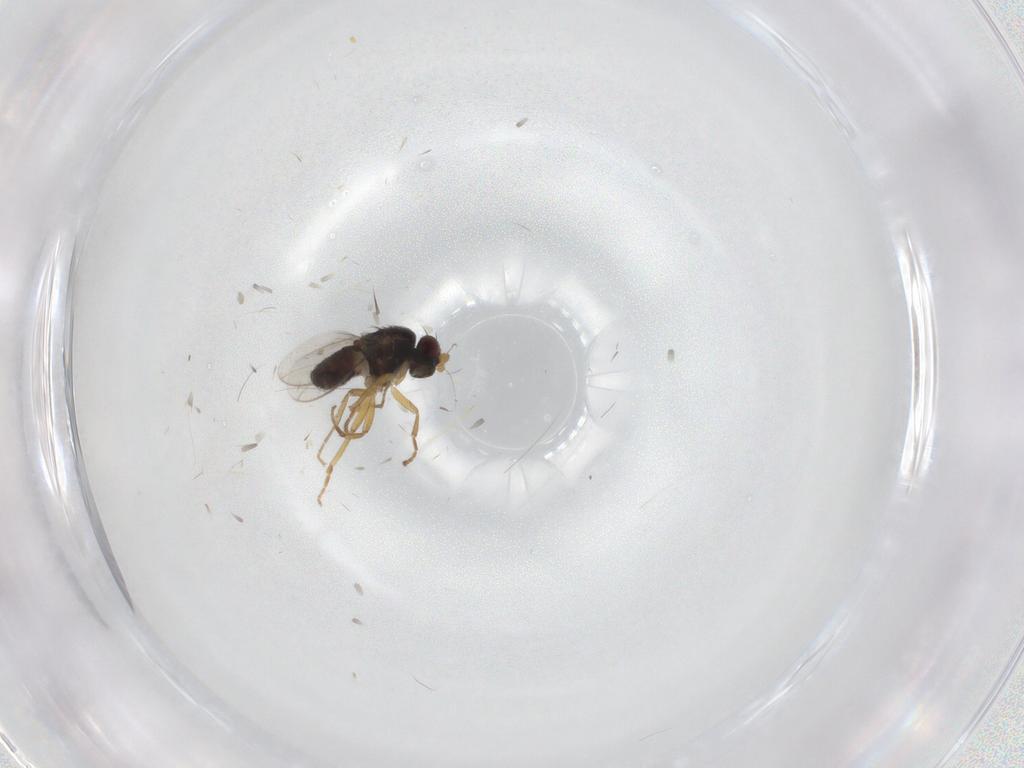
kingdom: Animalia
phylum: Arthropoda
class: Insecta
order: Diptera
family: Sphaeroceridae
